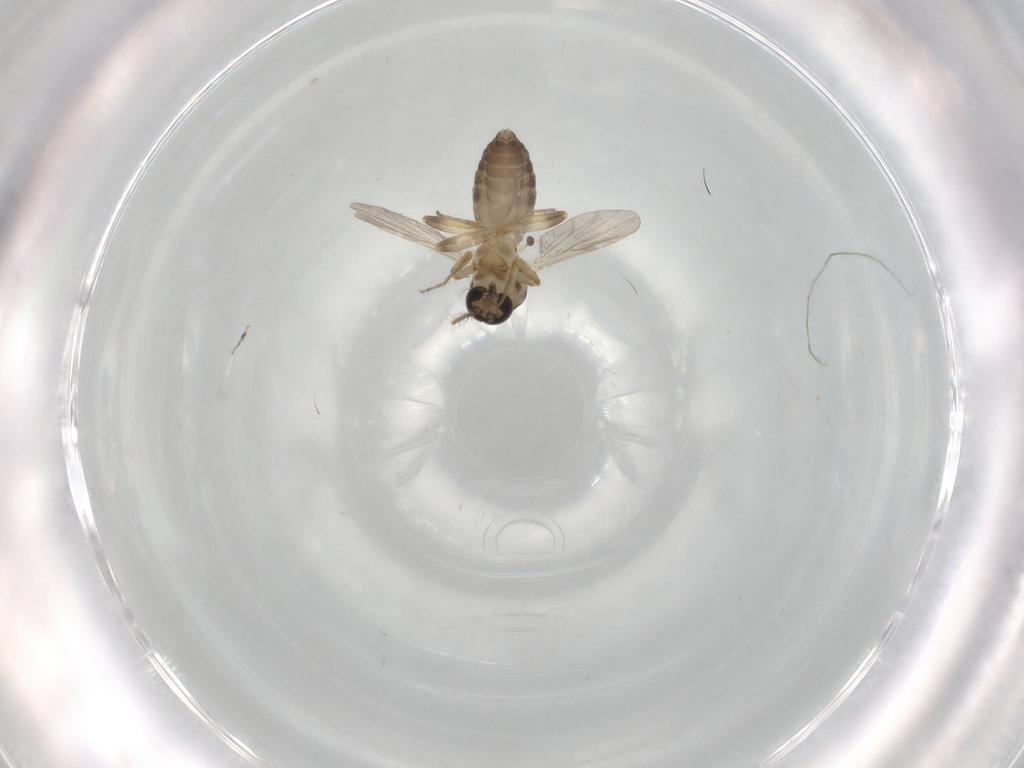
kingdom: Animalia
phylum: Arthropoda
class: Insecta
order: Diptera
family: Ceratopogonidae
